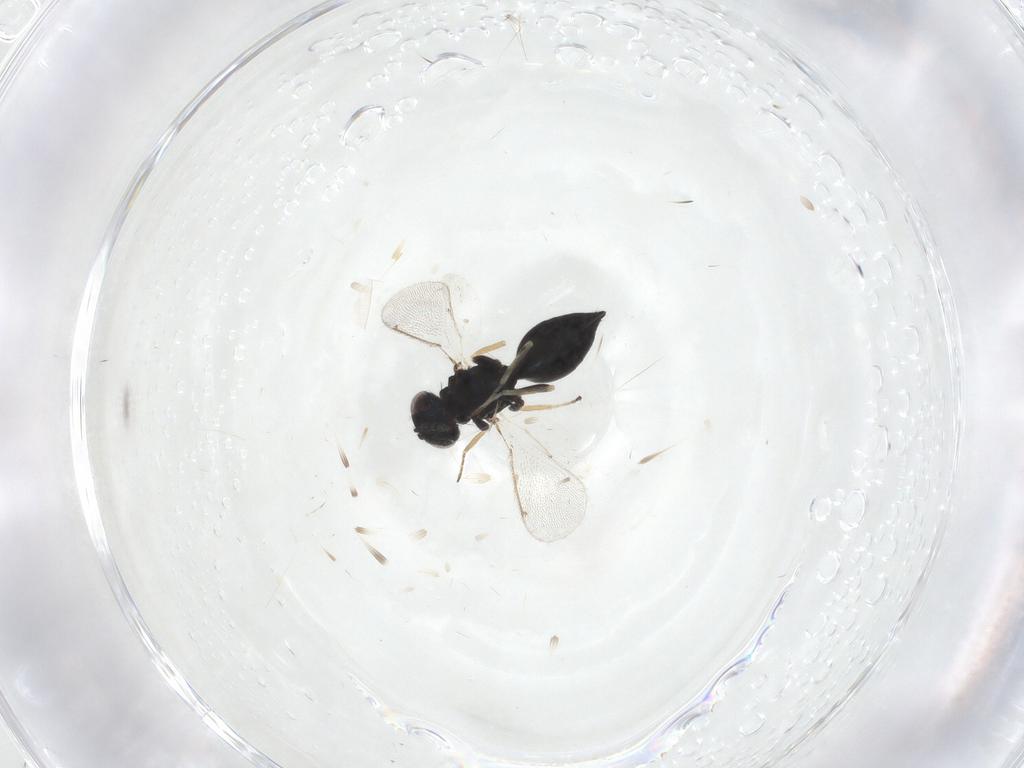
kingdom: Animalia
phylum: Arthropoda
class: Insecta
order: Hymenoptera
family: Eulophidae
